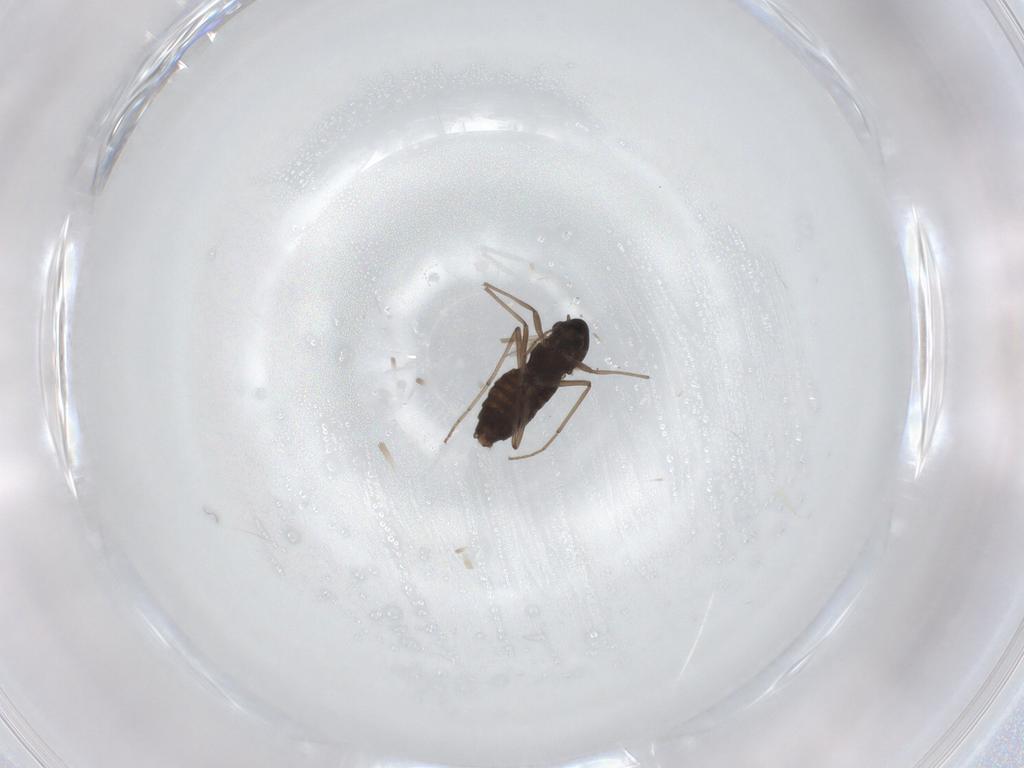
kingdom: Animalia
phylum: Arthropoda
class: Insecta
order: Diptera
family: Chironomidae
